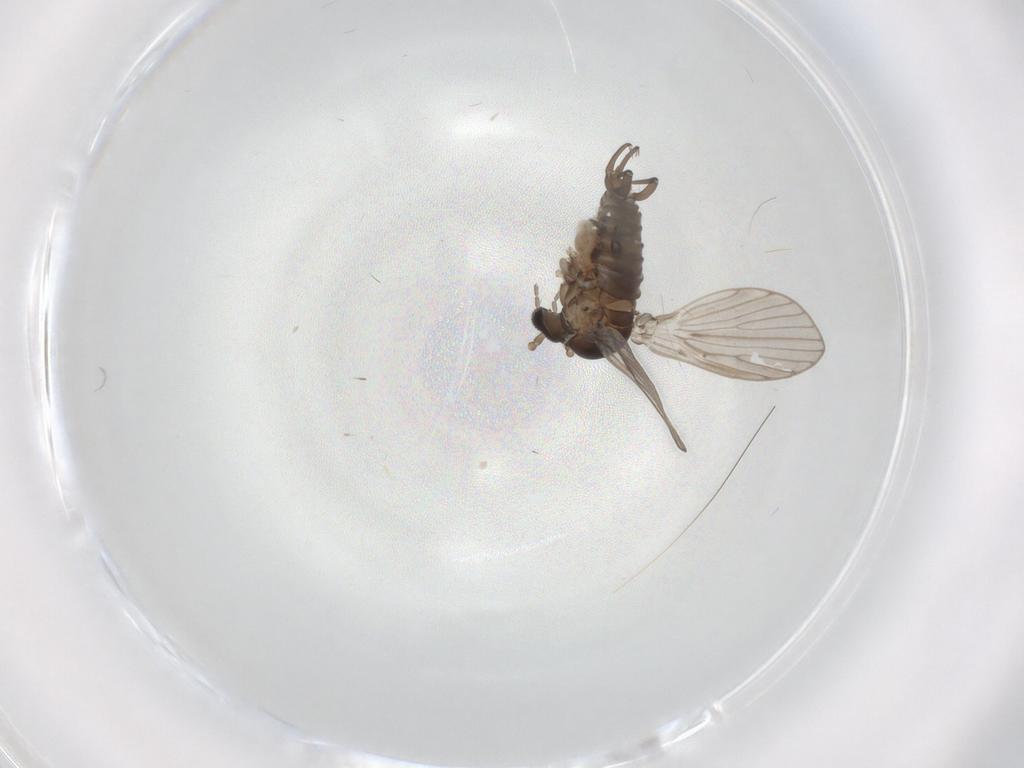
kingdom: Animalia
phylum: Arthropoda
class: Insecta
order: Diptera
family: Psychodidae
